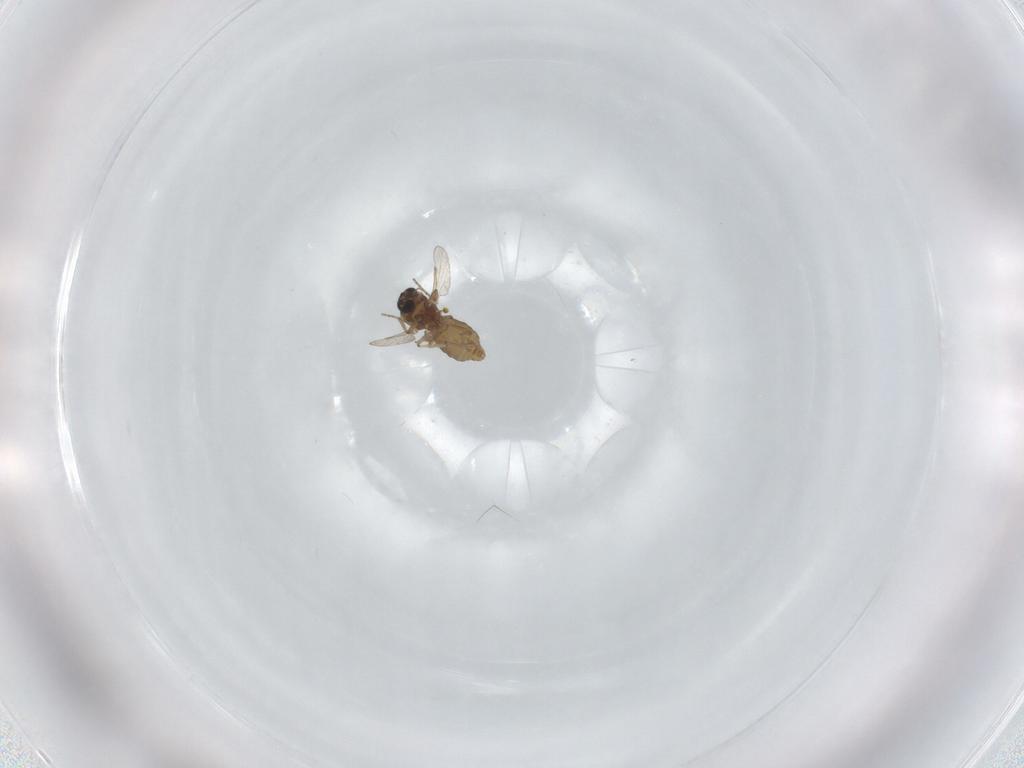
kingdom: Animalia
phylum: Arthropoda
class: Insecta
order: Diptera
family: Ceratopogonidae
